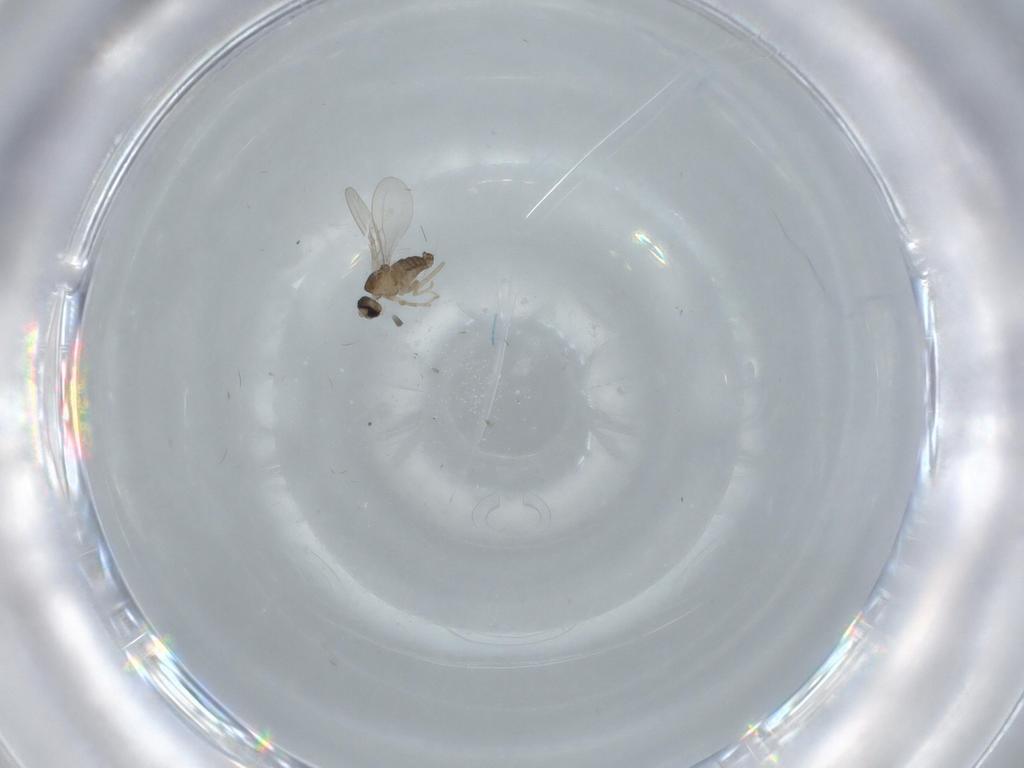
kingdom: Animalia
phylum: Arthropoda
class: Insecta
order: Diptera
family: Cecidomyiidae
